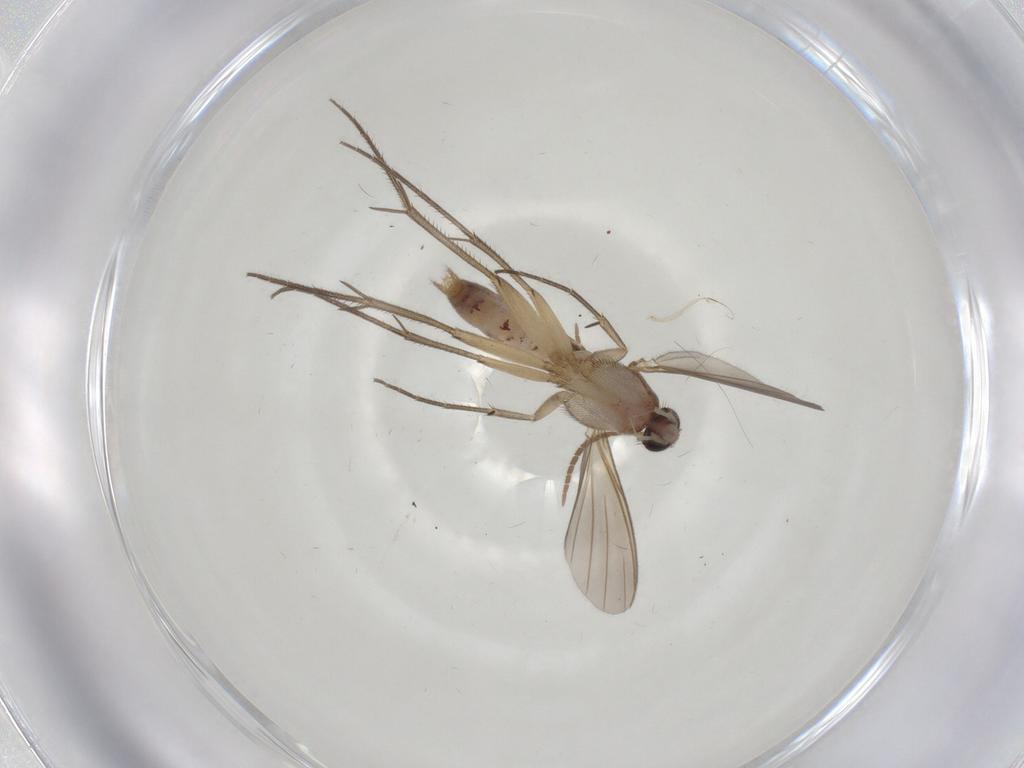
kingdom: Animalia
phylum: Arthropoda
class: Insecta
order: Diptera
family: Mycetophilidae
